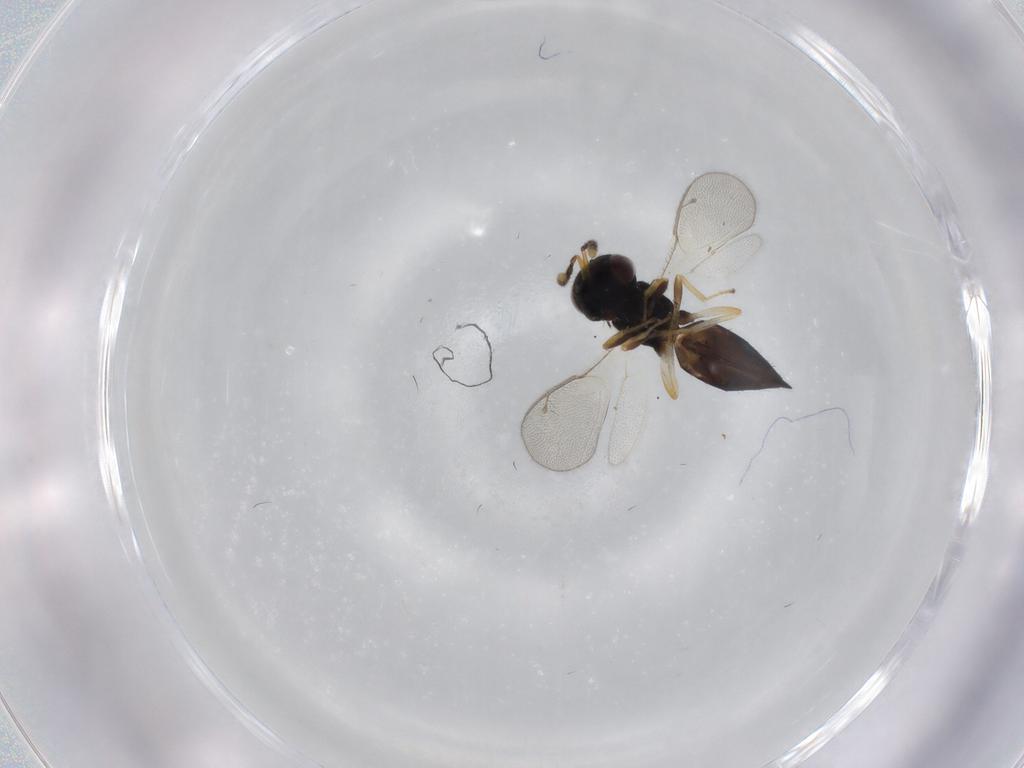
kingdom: Animalia
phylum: Arthropoda
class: Insecta
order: Hymenoptera
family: Pteromalidae
